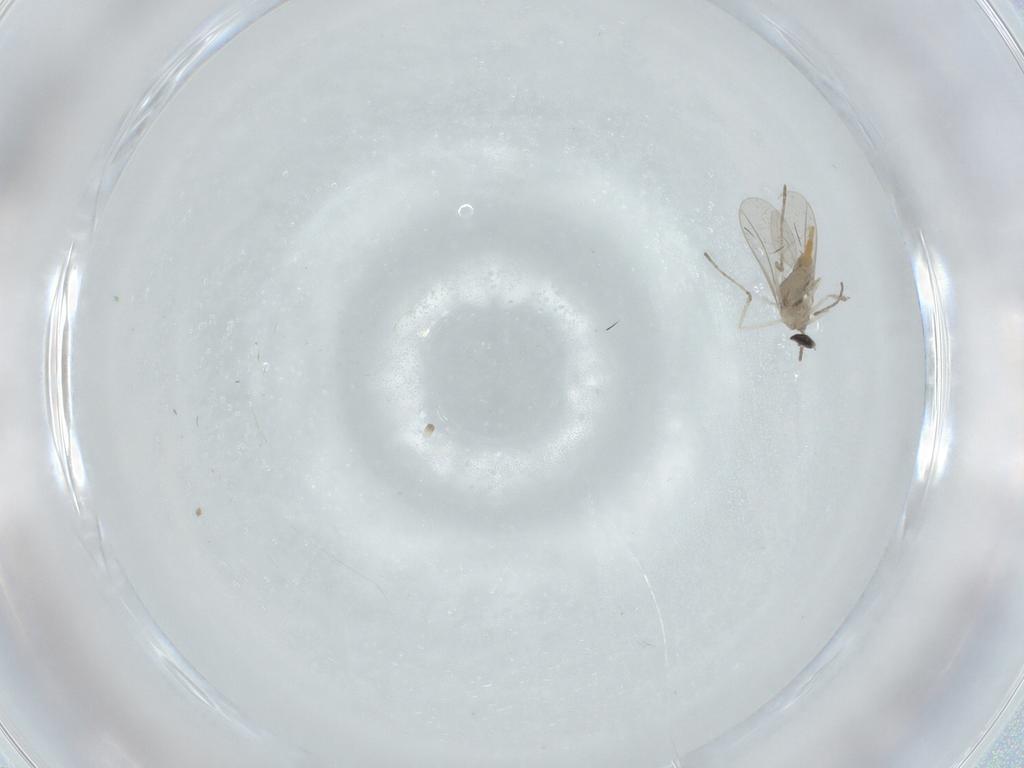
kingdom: Animalia
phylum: Arthropoda
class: Insecta
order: Diptera
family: Cecidomyiidae
